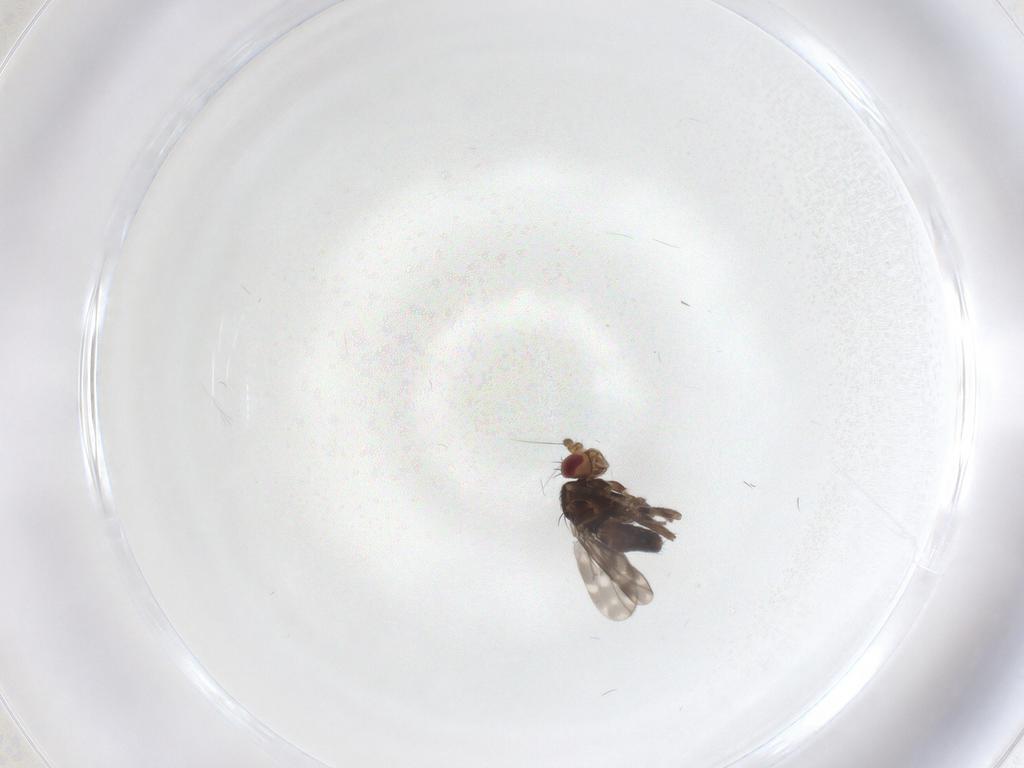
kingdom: Animalia
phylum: Arthropoda
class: Insecta
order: Diptera
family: Sphaeroceridae
